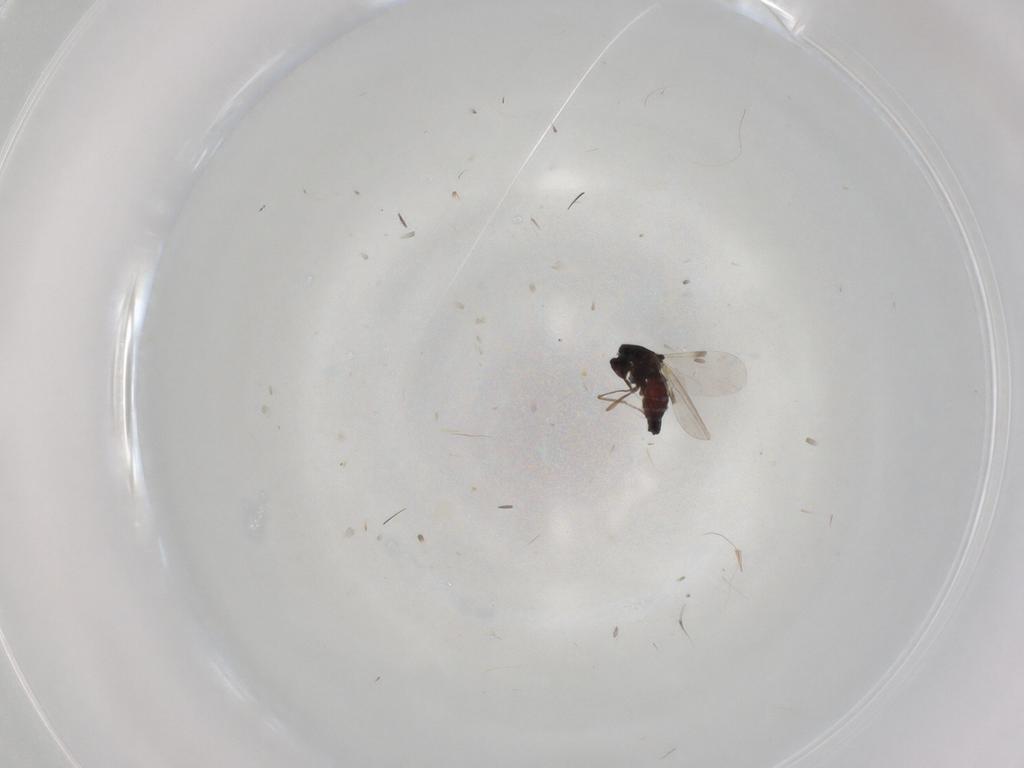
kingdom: Animalia
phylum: Arthropoda
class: Insecta
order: Diptera
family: Glossinidae
